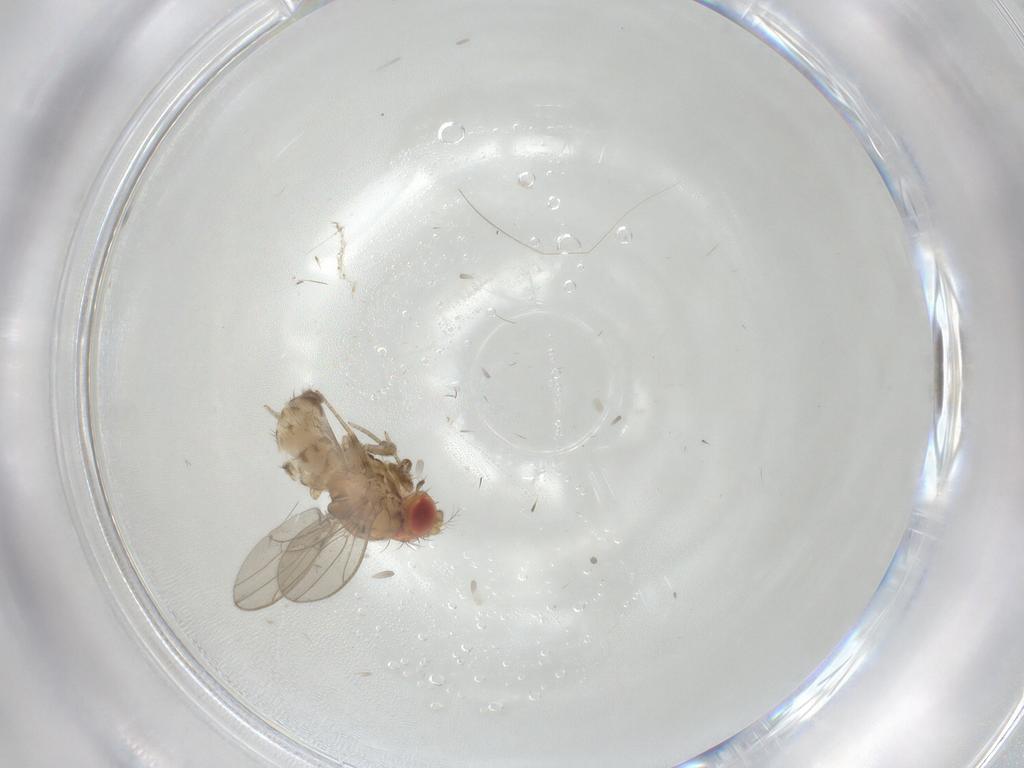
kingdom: Animalia
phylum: Arthropoda
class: Insecta
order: Diptera
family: Drosophilidae
